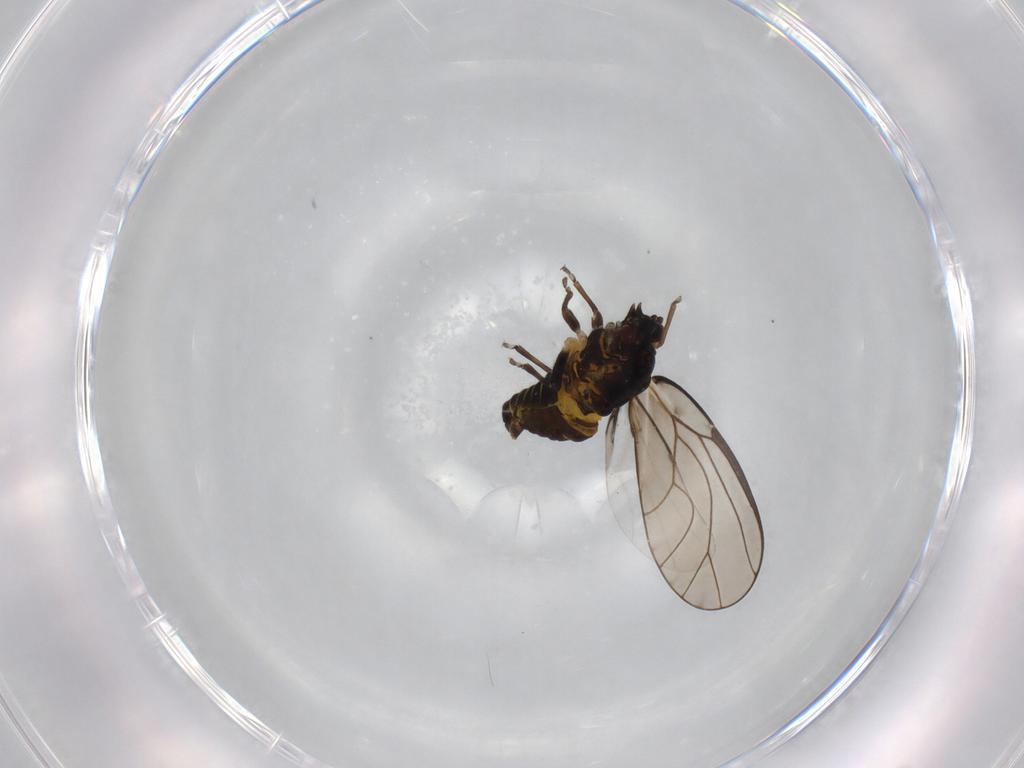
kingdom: Animalia
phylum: Arthropoda
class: Insecta
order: Hemiptera
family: Psylloidea_incertae_sedis
